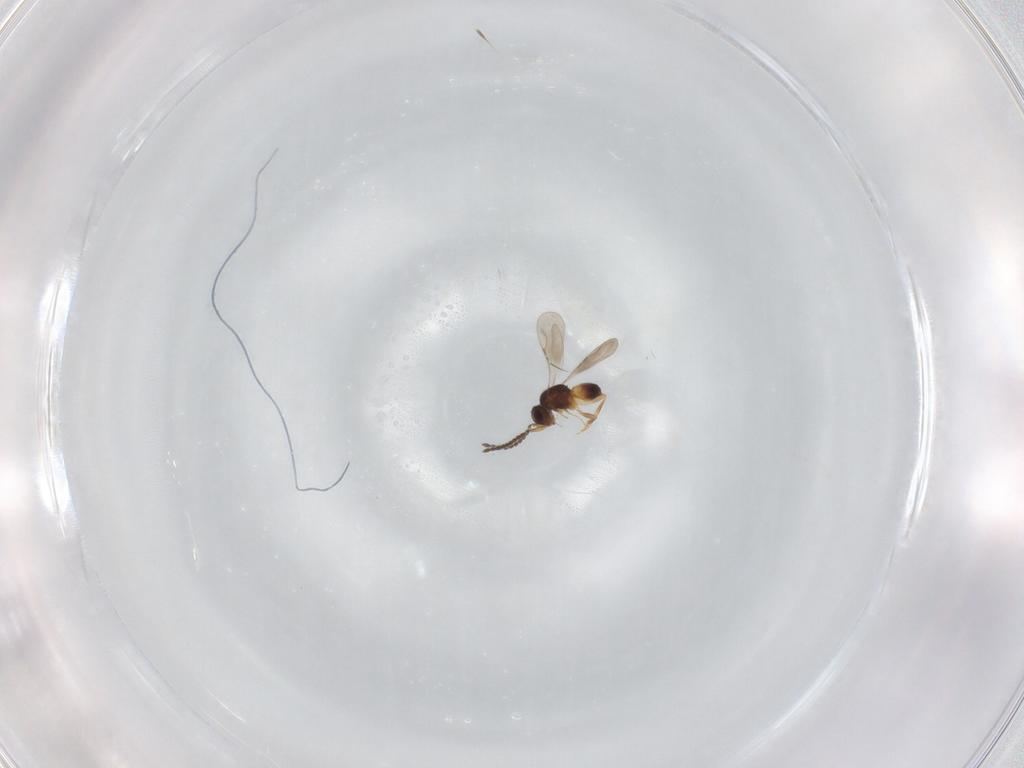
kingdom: Animalia
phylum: Arthropoda
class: Insecta
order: Hymenoptera
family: Ceraphronidae
